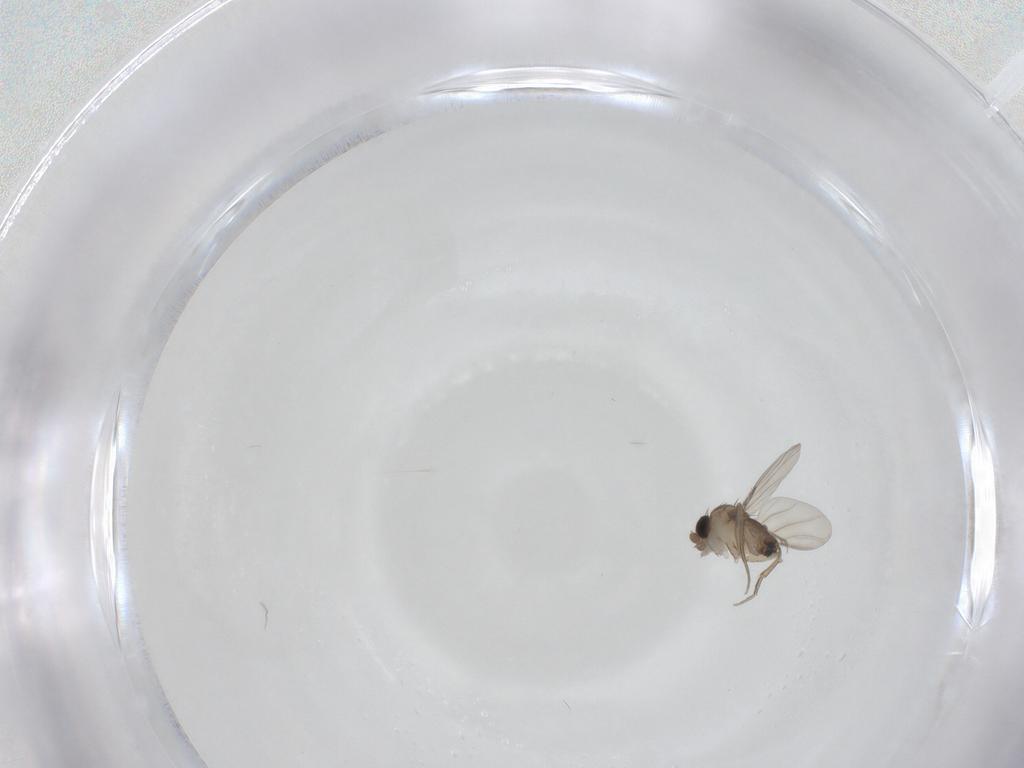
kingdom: Animalia
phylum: Arthropoda
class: Insecta
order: Diptera
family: Phoridae
